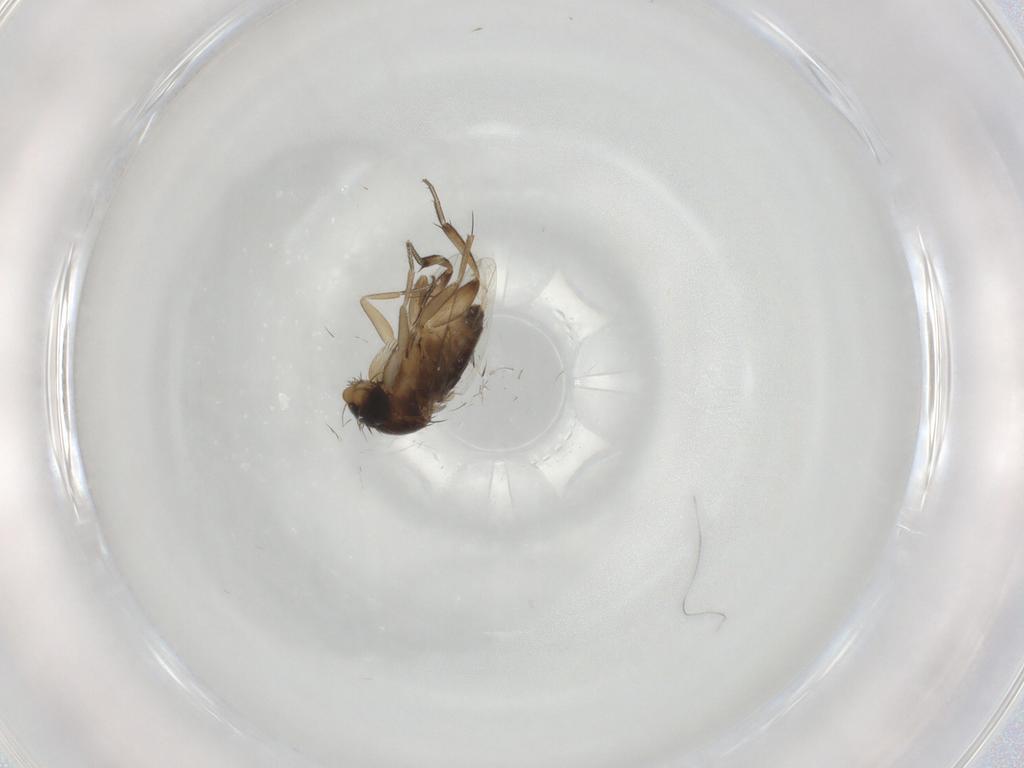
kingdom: Animalia
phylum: Arthropoda
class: Insecta
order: Diptera
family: Phoridae
